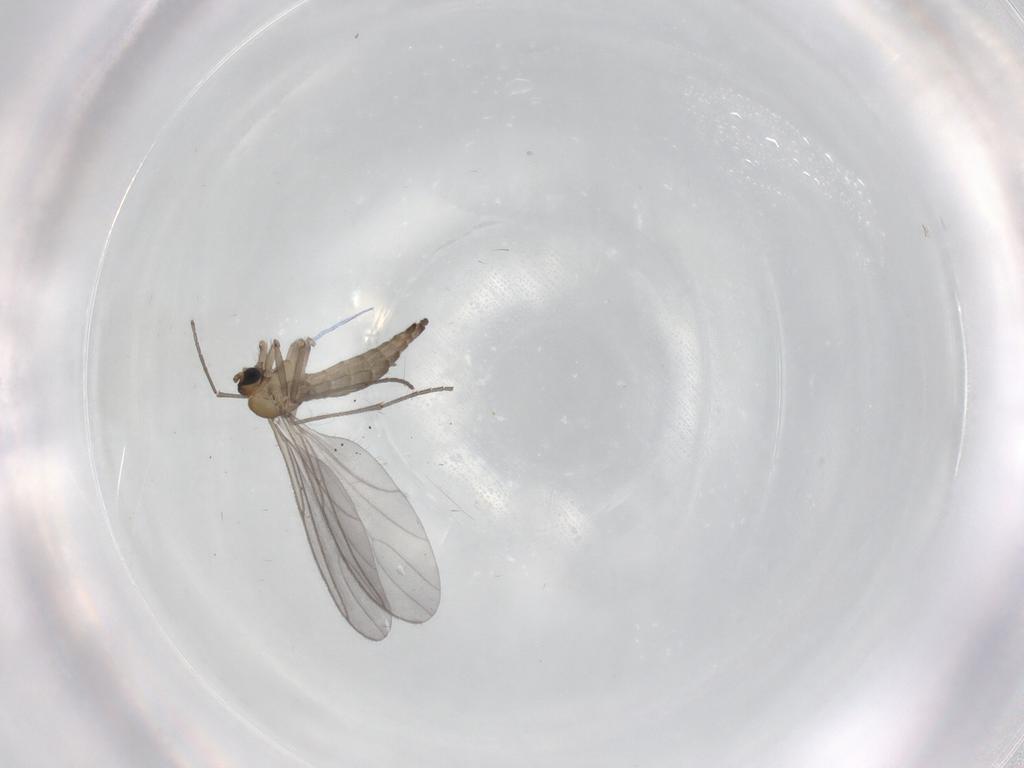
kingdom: Animalia
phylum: Arthropoda
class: Insecta
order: Diptera
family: Sciaridae
